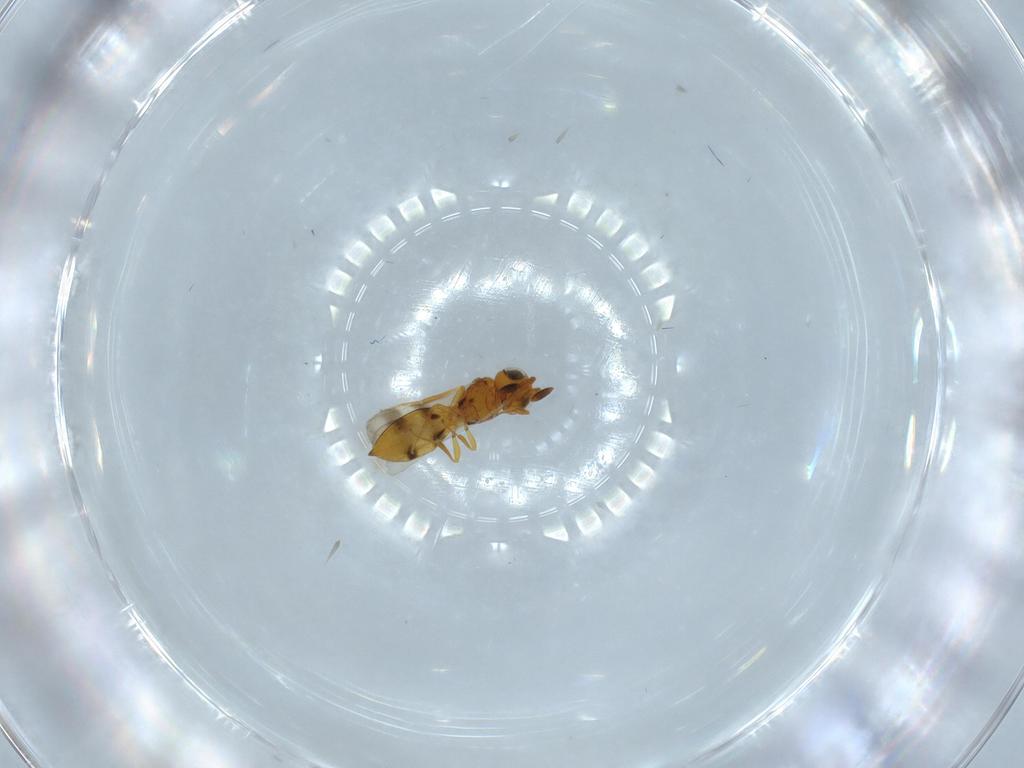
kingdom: Animalia
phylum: Arthropoda
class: Insecta
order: Hymenoptera
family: Scelionidae
